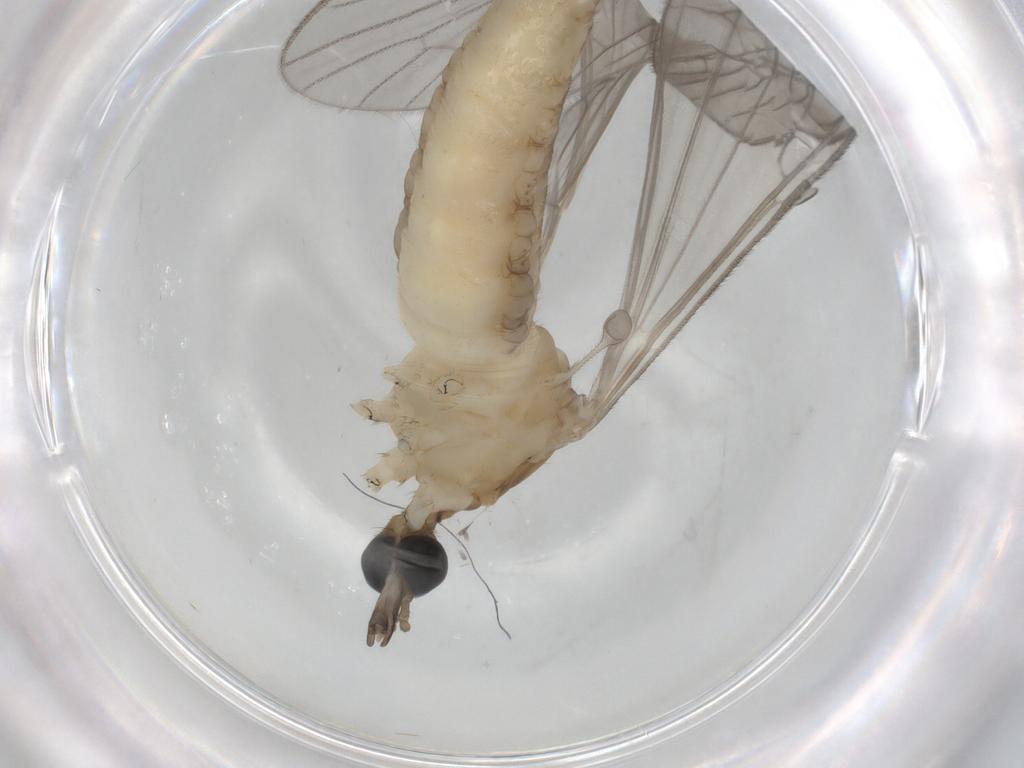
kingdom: Animalia
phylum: Arthropoda
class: Insecta
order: Diptera
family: Limoniidae
